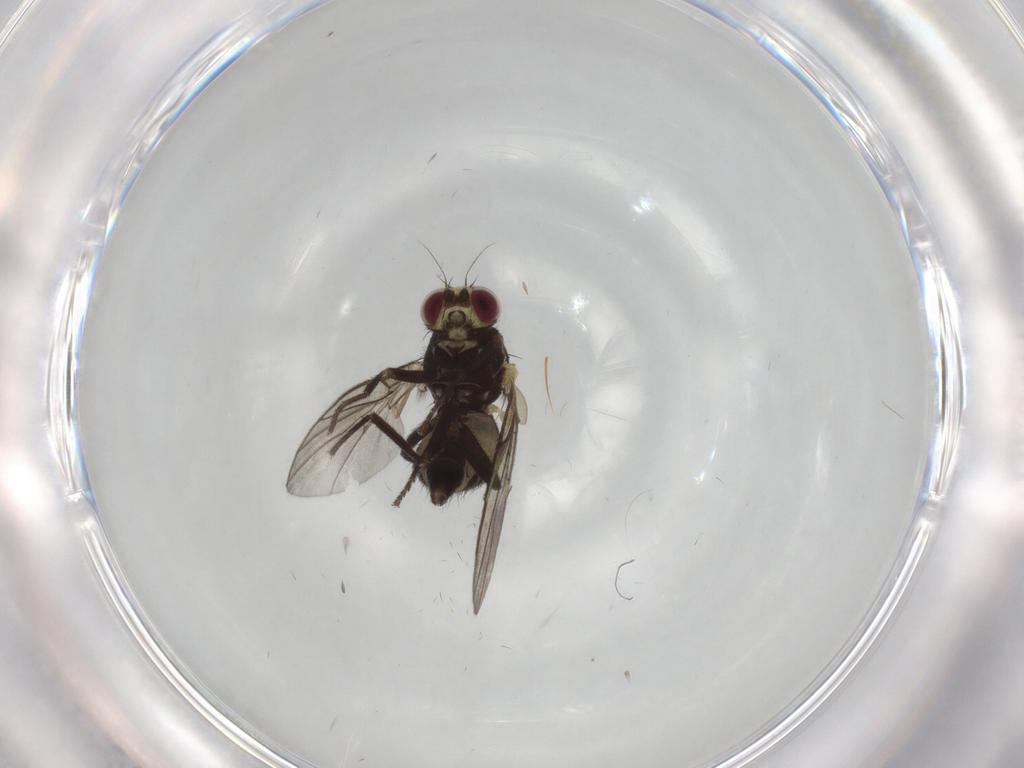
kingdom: Animalia
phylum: Arthropoda
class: Insecta
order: Diptera
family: Agromyzidae
